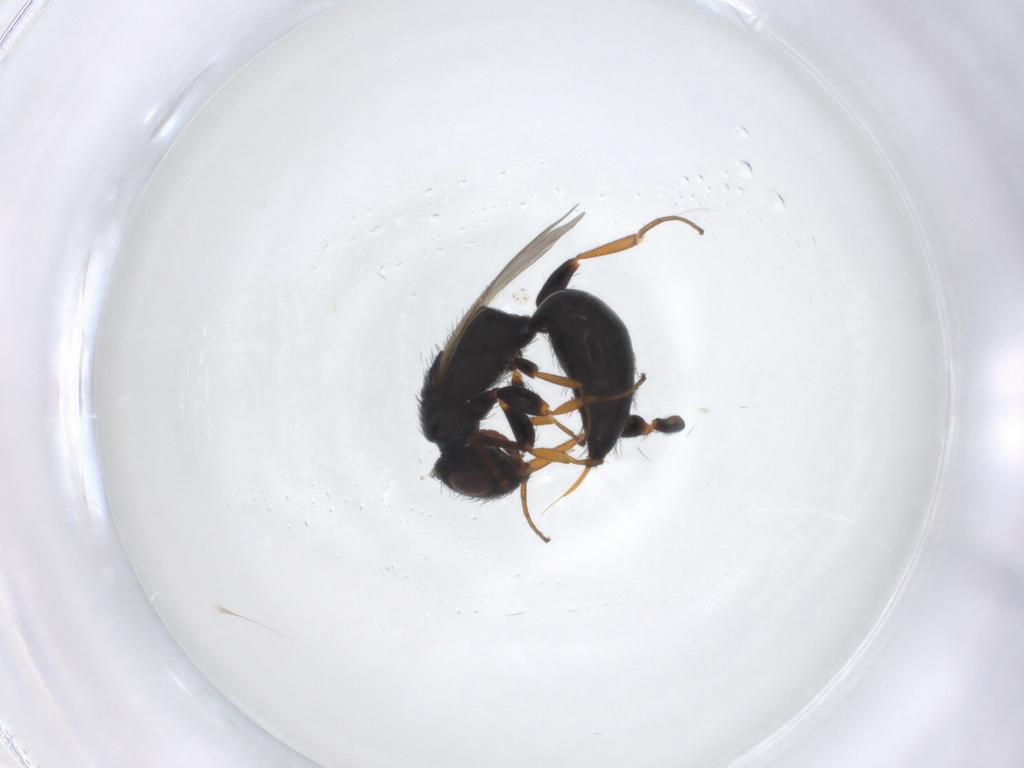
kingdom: Animalia
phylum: Arthropoda
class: Insecta
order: Hymenoptera
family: Bethylidae
